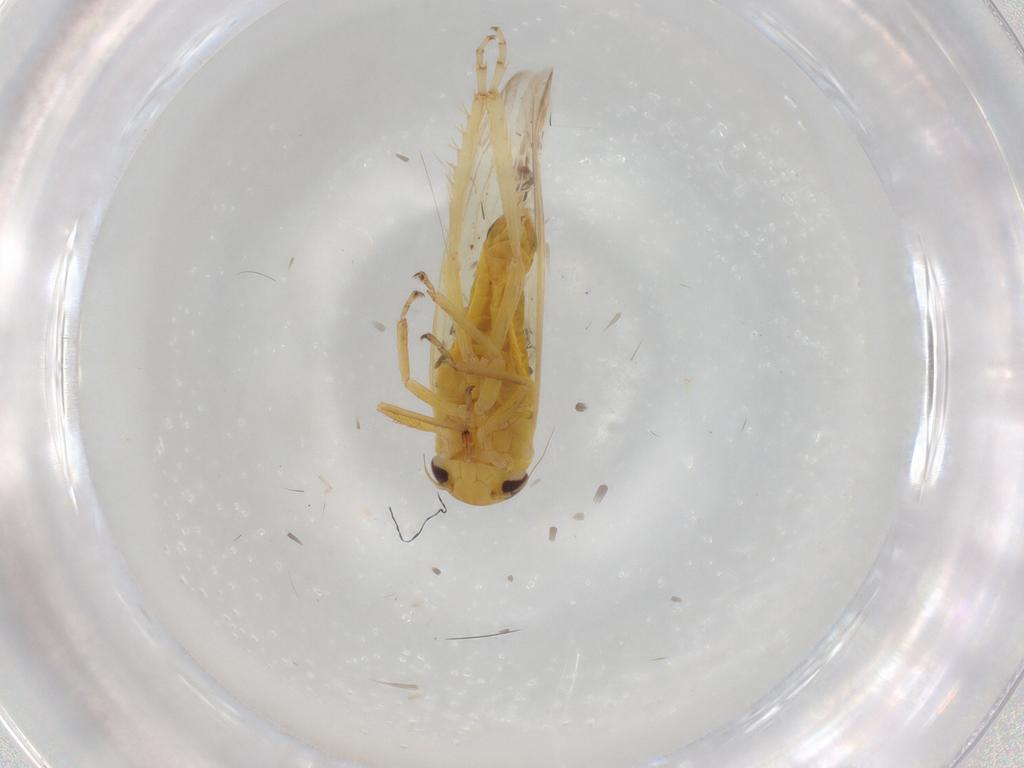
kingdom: Animalia
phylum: Arthropoda
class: Insecta
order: Hemiptera
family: Cicadellidae
